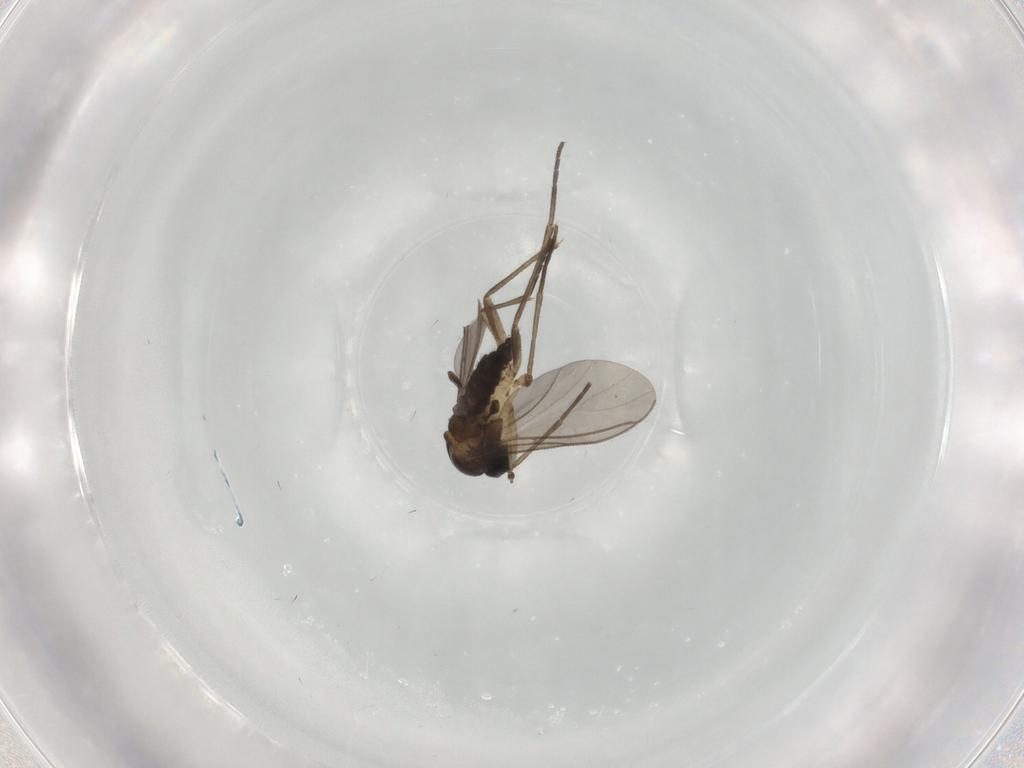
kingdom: Animalia
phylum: Arthropoda
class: Insecta
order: Diptera
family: Sciaridae
